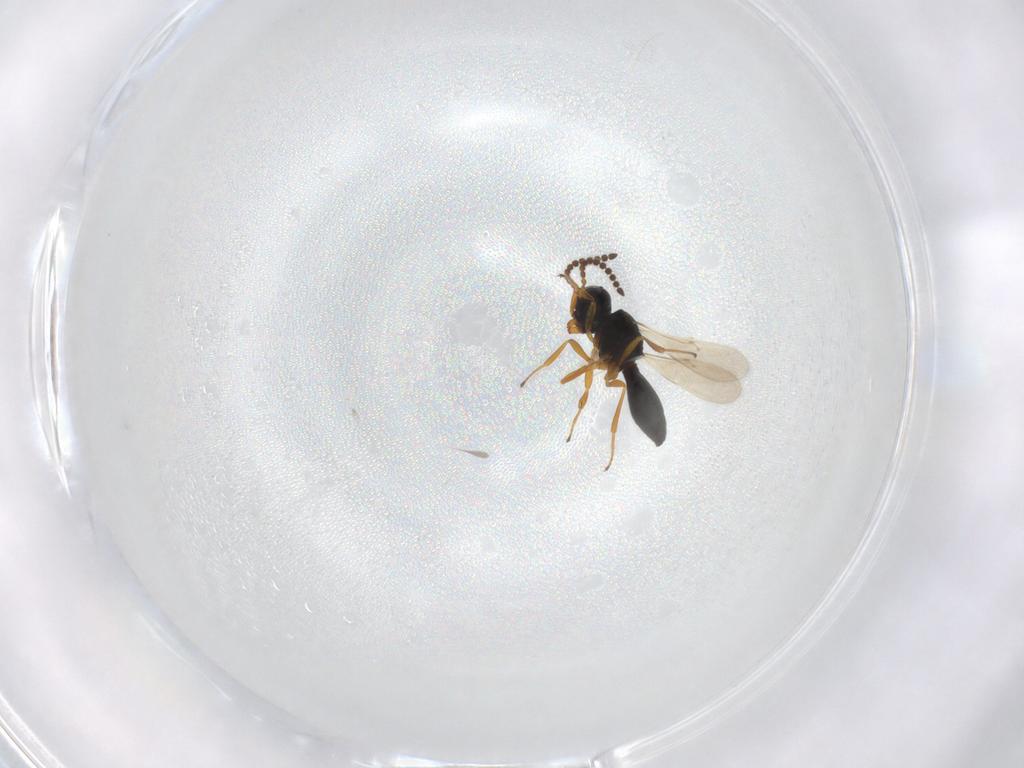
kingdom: Animalia
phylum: Arthropoda
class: Insecta
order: Hymenoptera
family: Scelionidae
